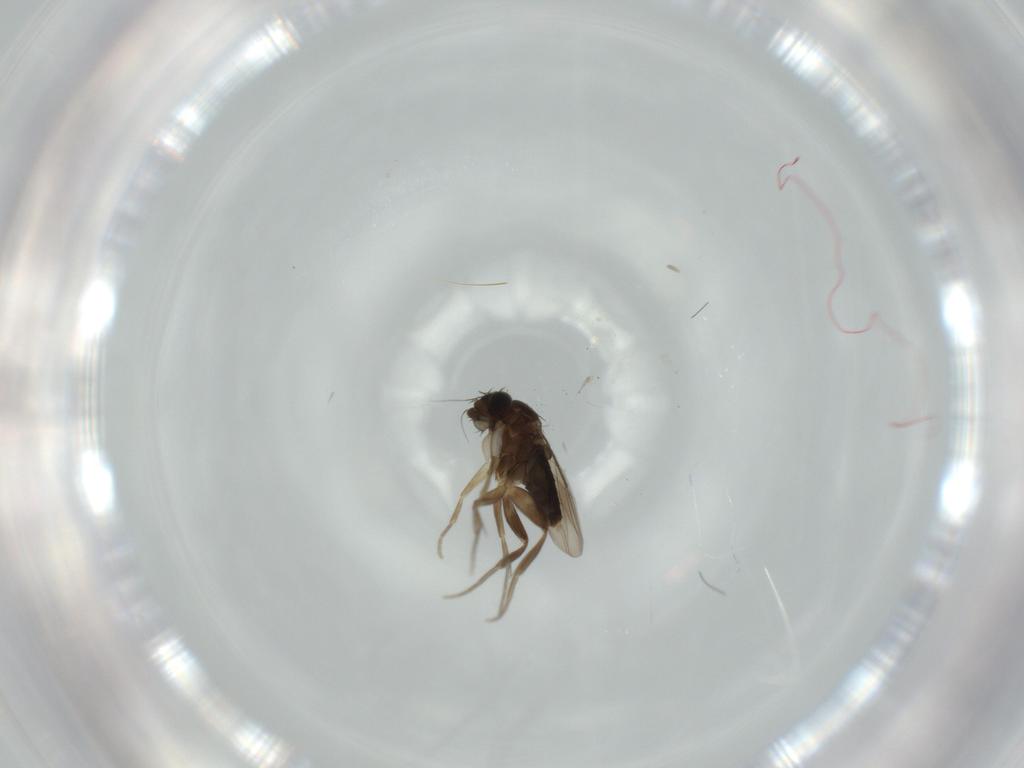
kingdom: Animalia
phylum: Arthropoda
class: Insecta
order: Diptera
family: Phoridae
